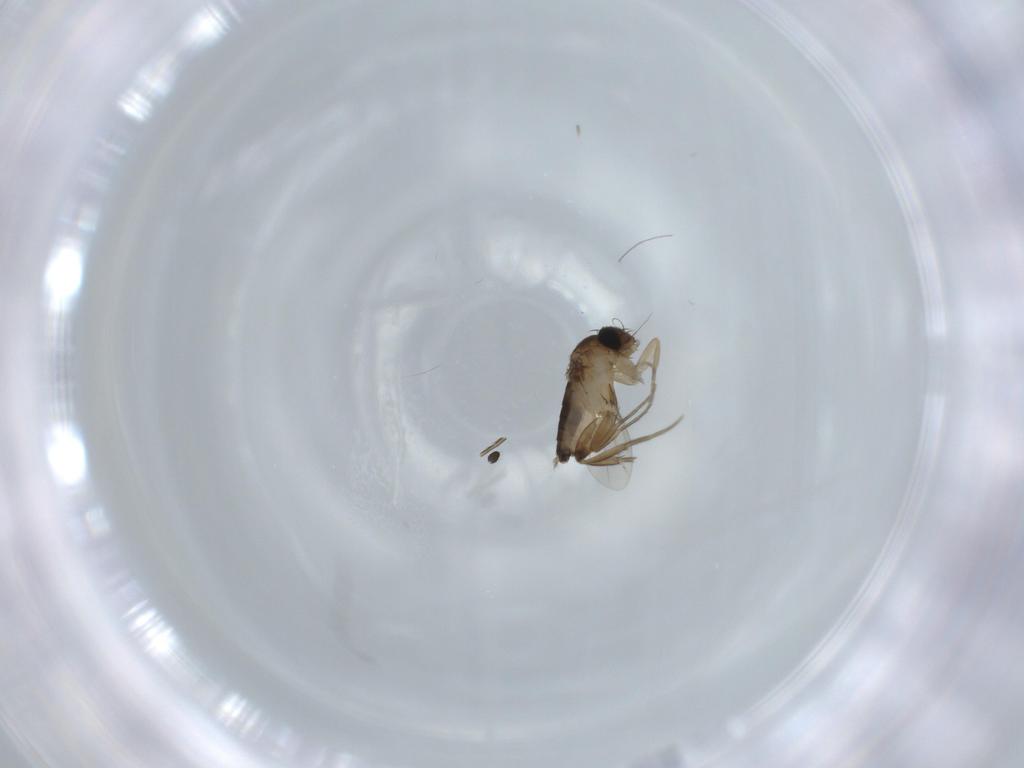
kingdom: Animalia
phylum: Arthropoda
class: Insecta
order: Diptera
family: Phoridae
